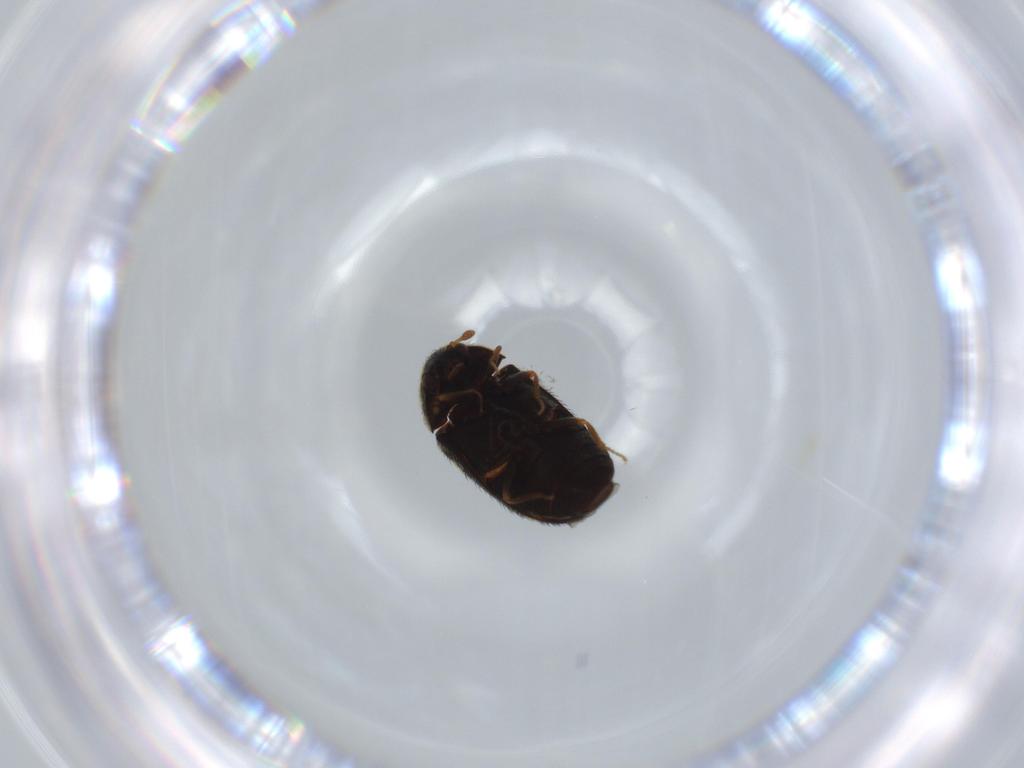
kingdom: Animalia
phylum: Arthropoda
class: Insecta
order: Coleoptera
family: Dermestidae
